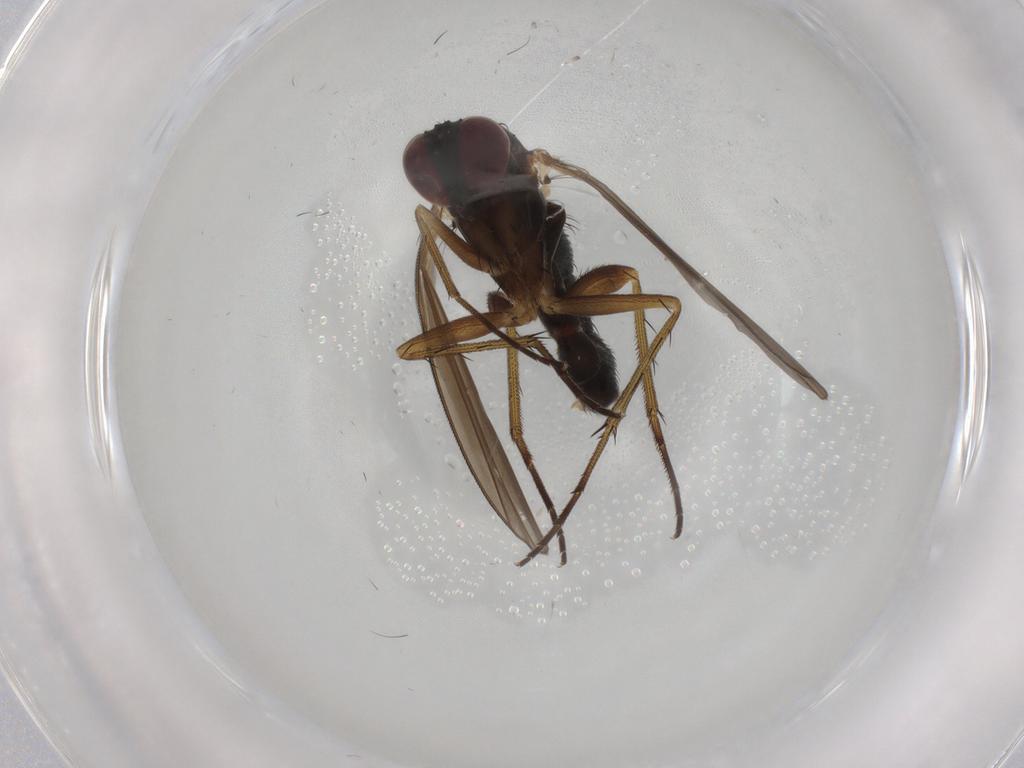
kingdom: Animalia
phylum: Arthropoda
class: Insecta
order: Diptera
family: Dolichopodidae
